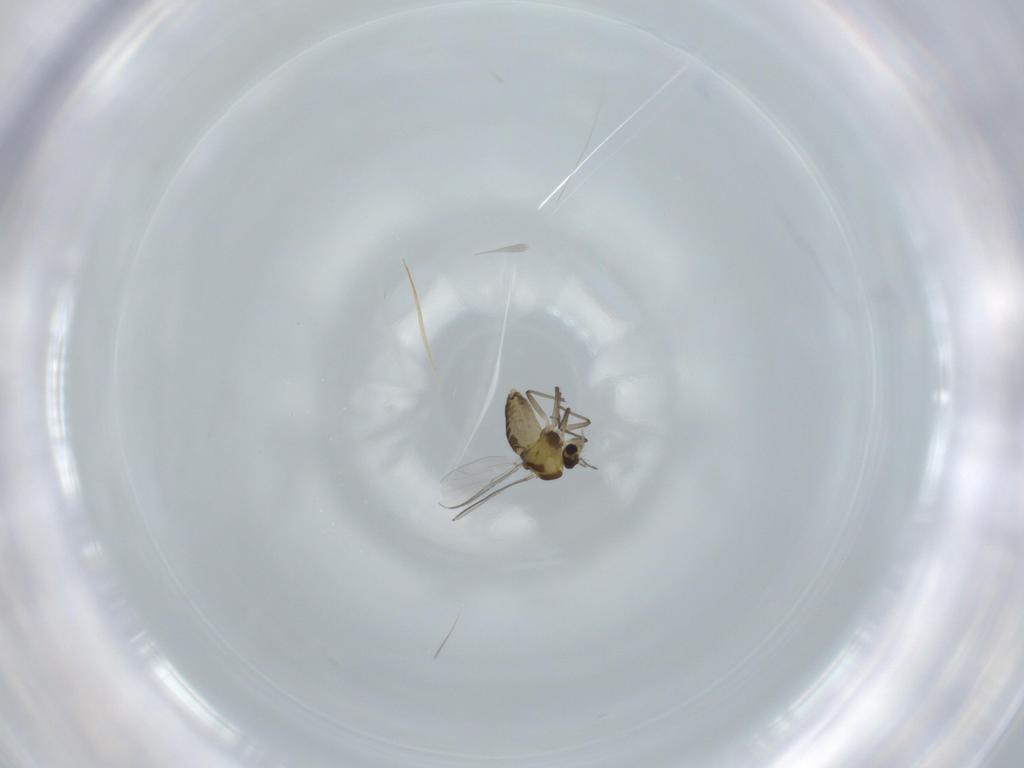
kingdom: Animalia
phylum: Arthropoda
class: Insecta
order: Diptera
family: Chironomidae
